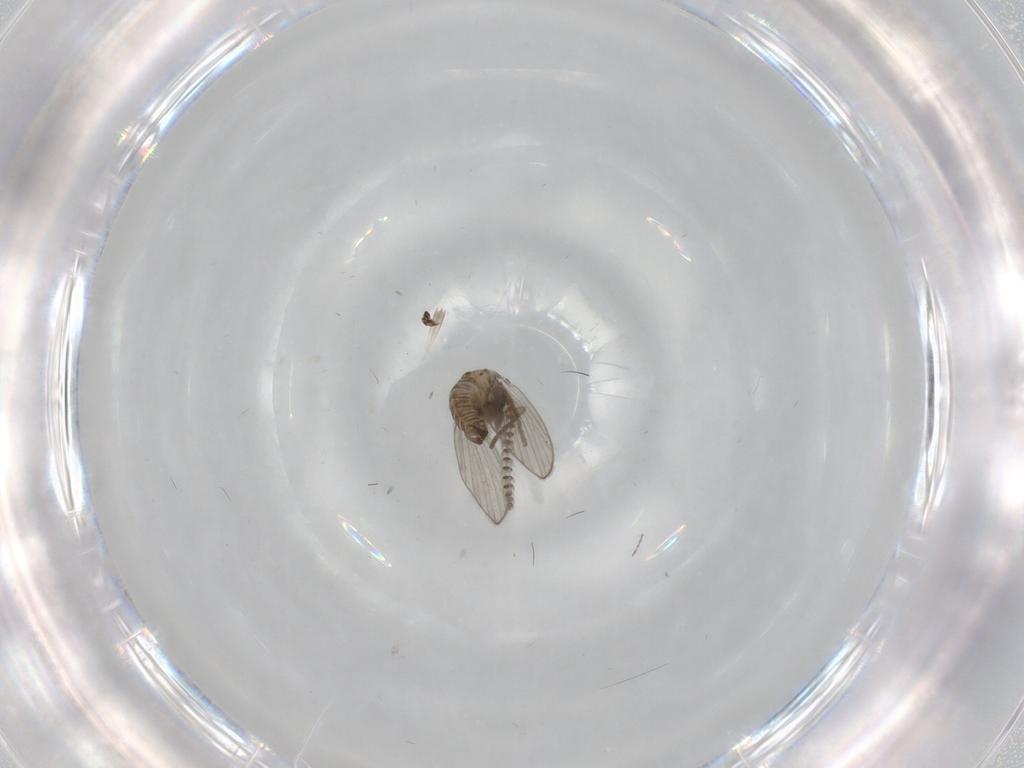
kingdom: Animalia
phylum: Arthropoda
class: Insecta
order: Diptera
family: Psychodidae
